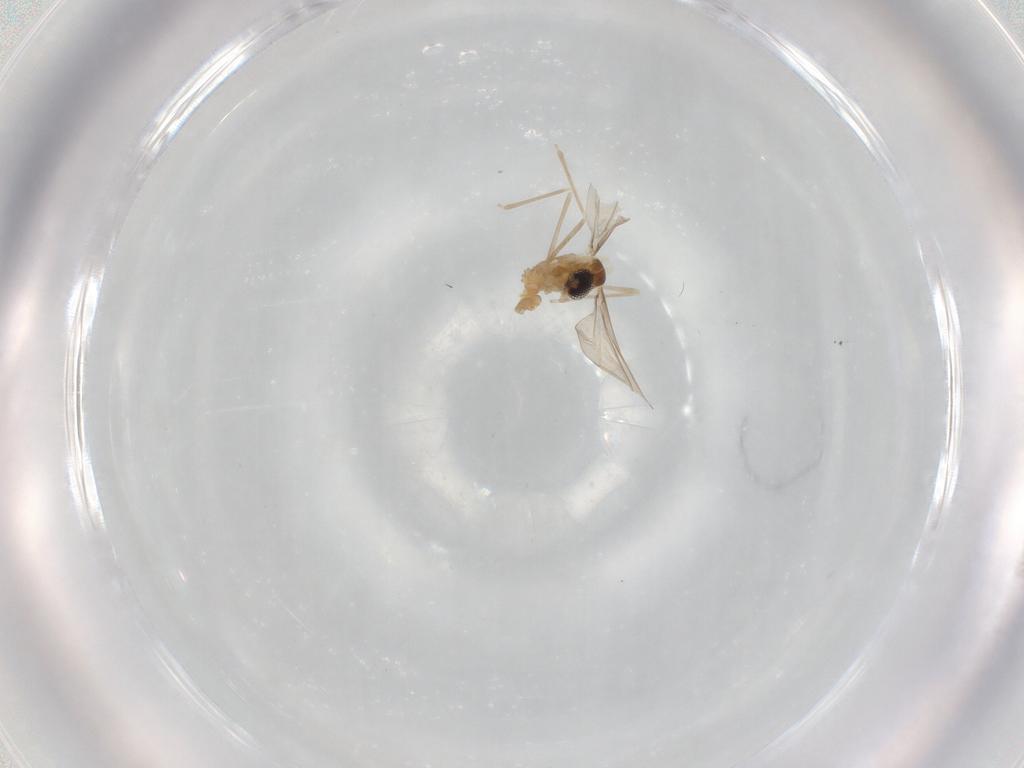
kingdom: Animalia
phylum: Arthropoda
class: Insecta
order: Diptera
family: Cecidomyiidae
